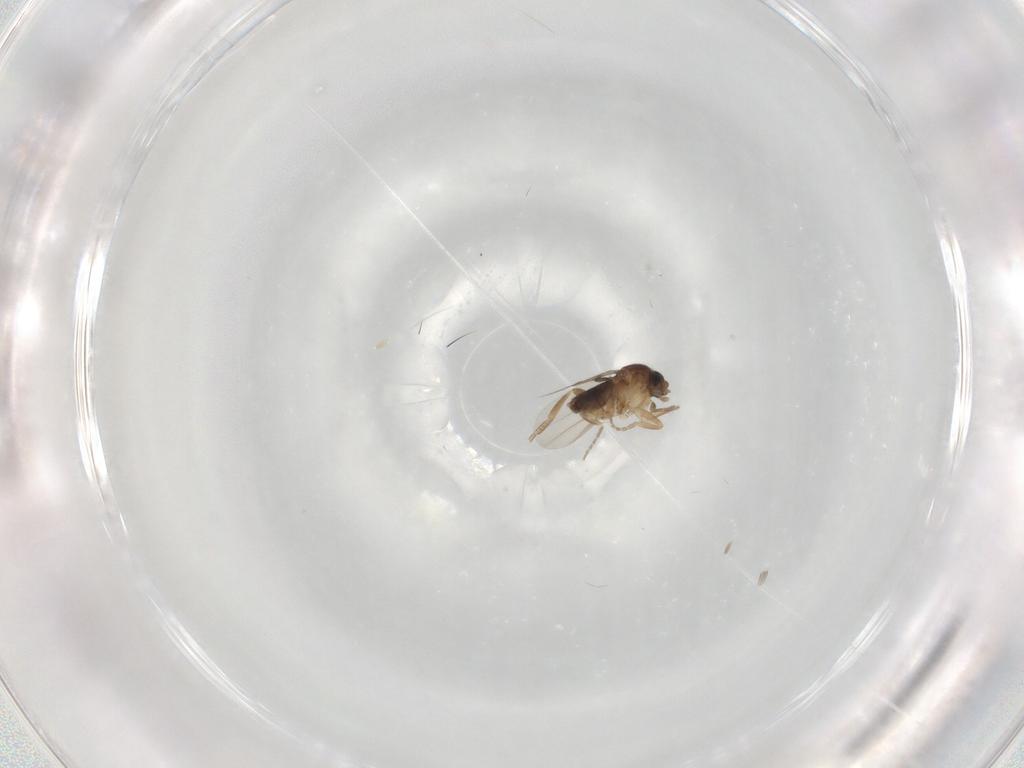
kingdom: Animalia
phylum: Arthropoda
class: Insecta
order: Diptera
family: Phoridae
